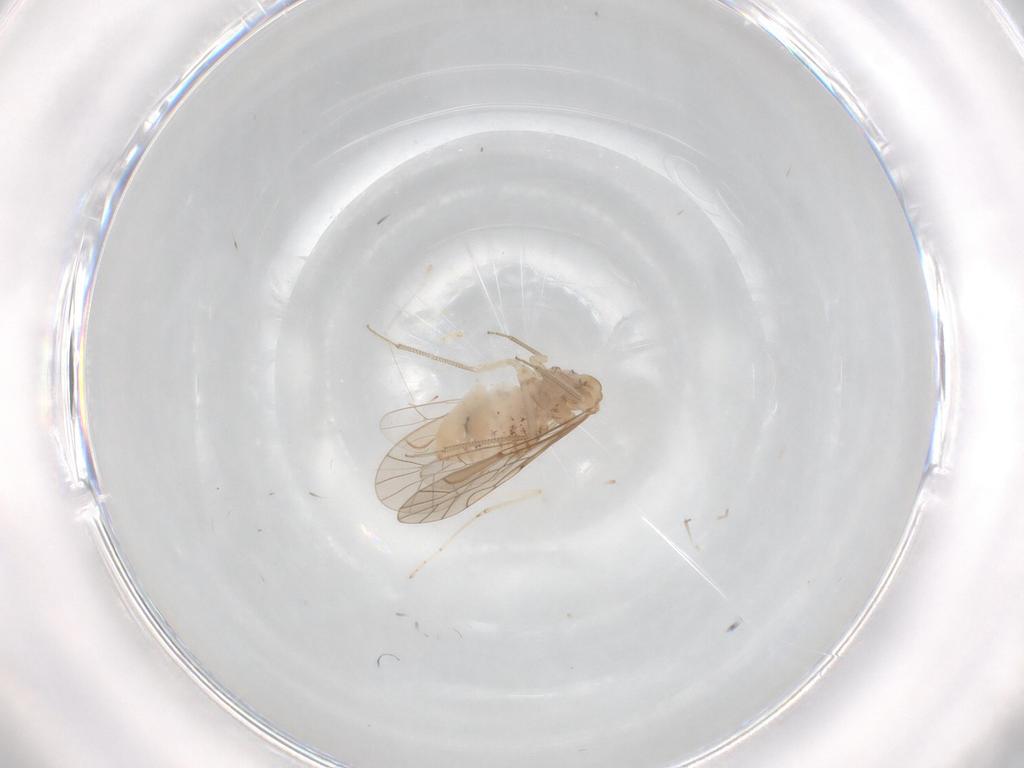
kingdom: Animalia
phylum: Arthropoda
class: Insecta
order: Psocodea
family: Lachesillidae
